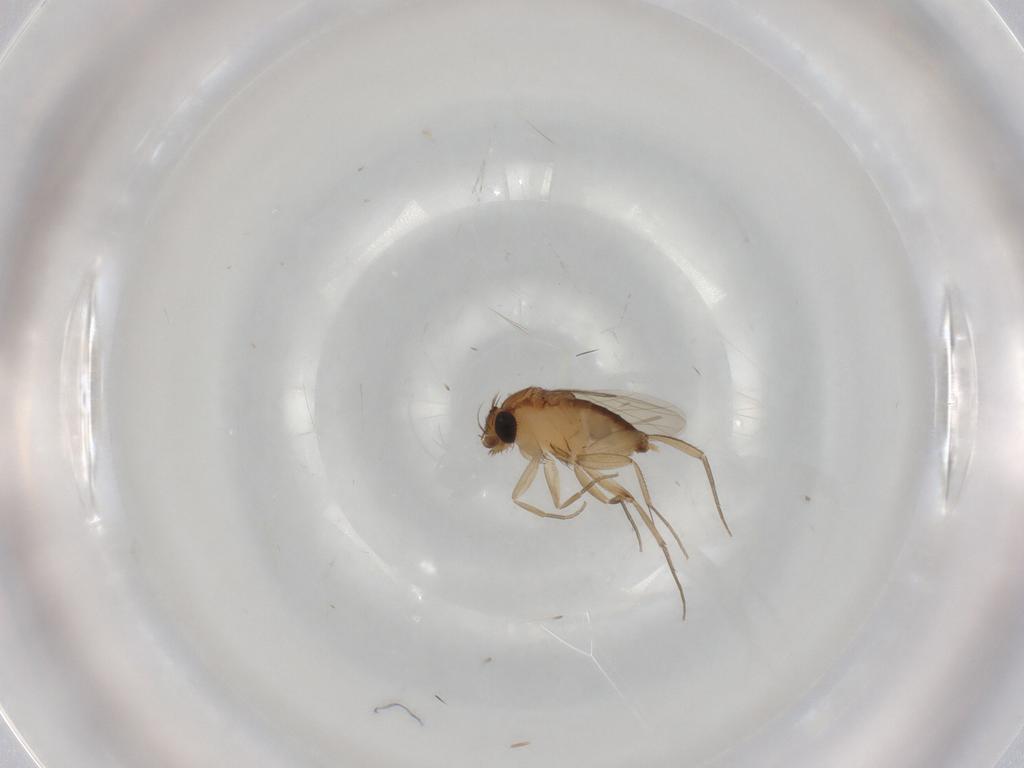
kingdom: Animalia
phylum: Arthropoda
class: Insecta
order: Diptera
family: Phoridae
